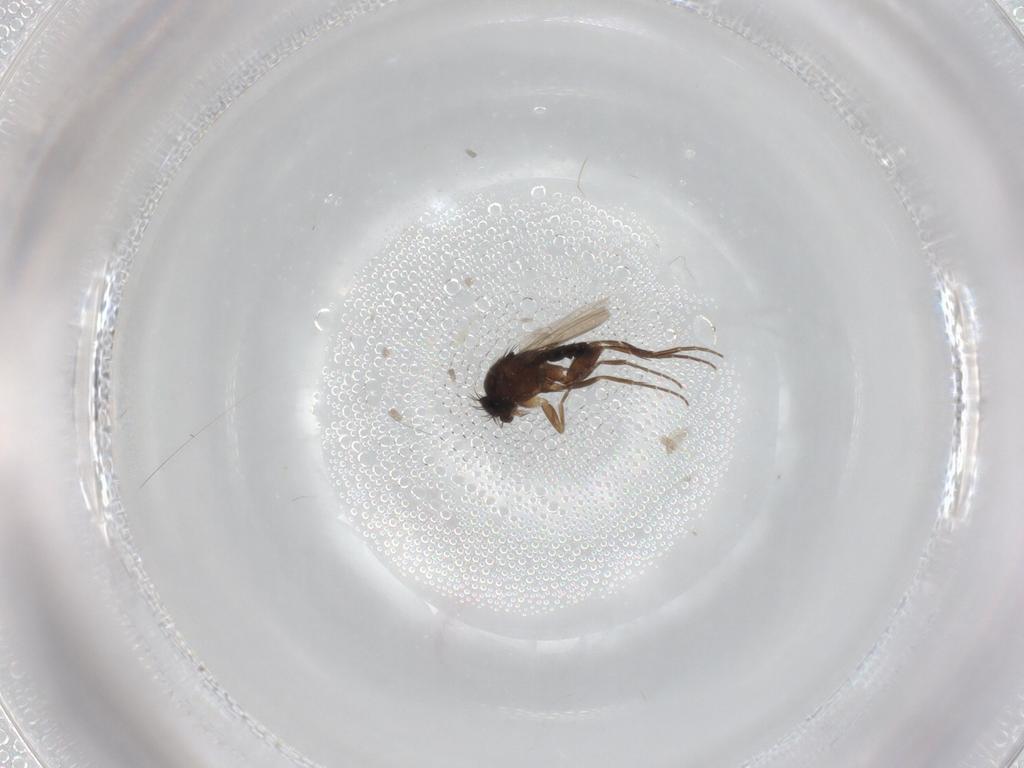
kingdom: Animalia
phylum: Arthropoda
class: Insecta
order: Diptera
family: Phoridae
